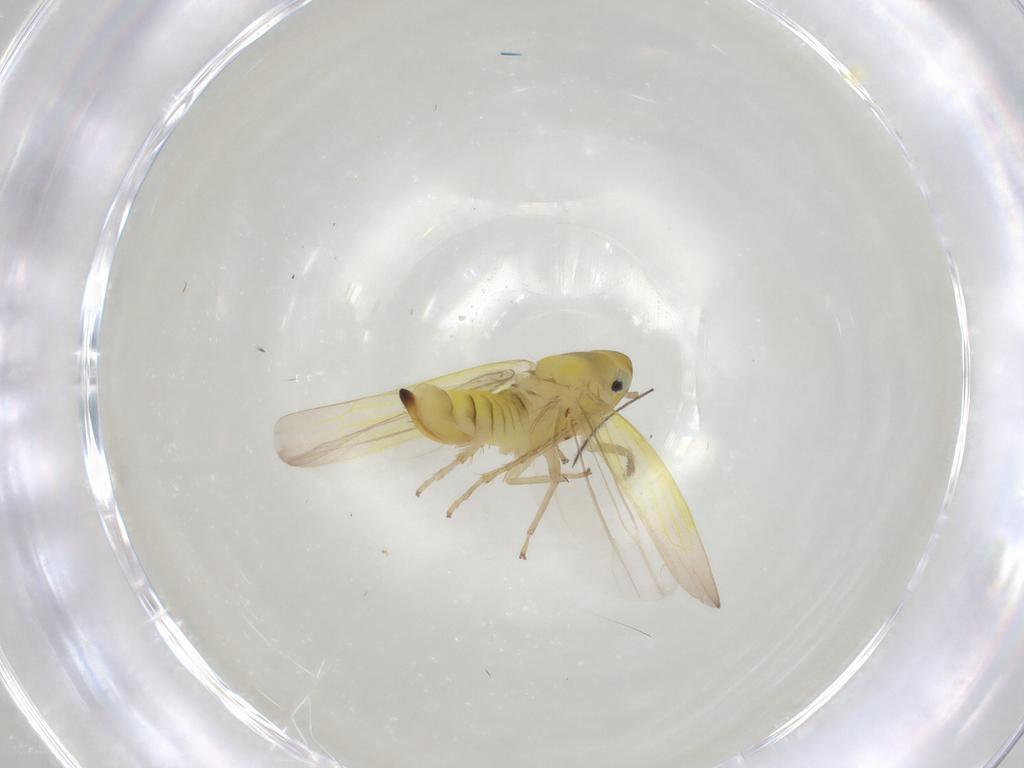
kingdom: Animalia
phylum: Arthropoda
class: Insecta
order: Hemiptera
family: Cicadellidae
